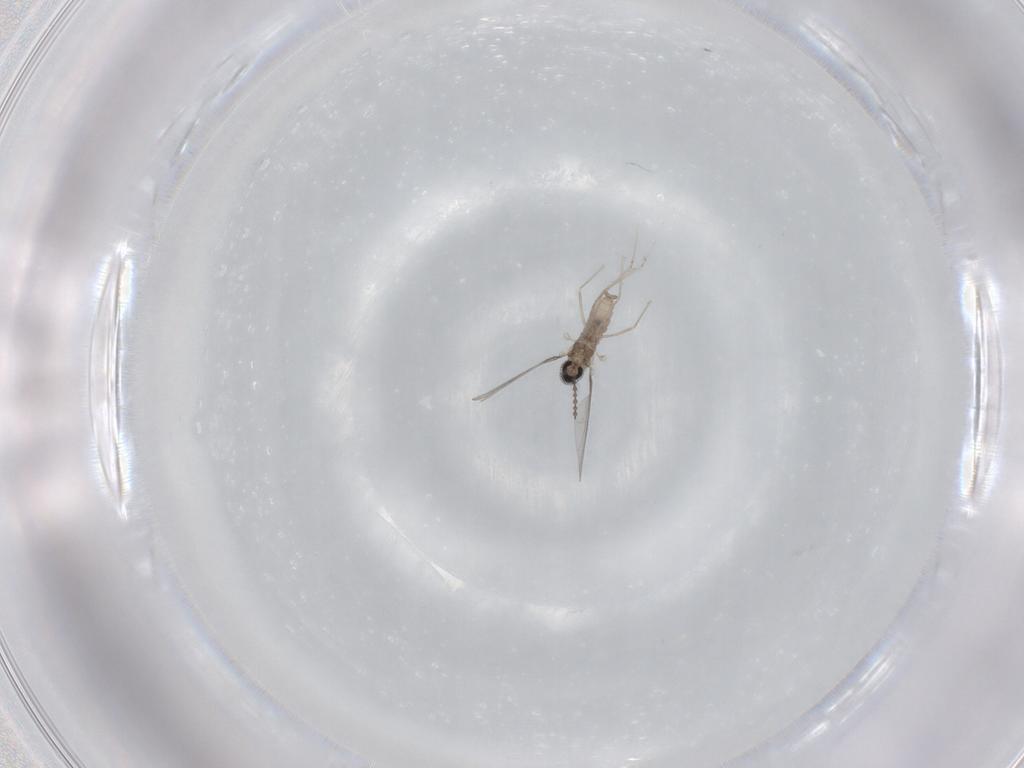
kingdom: Animalia
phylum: Arthropoda
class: Insecta
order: Diptera
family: Cecidomyiidae
